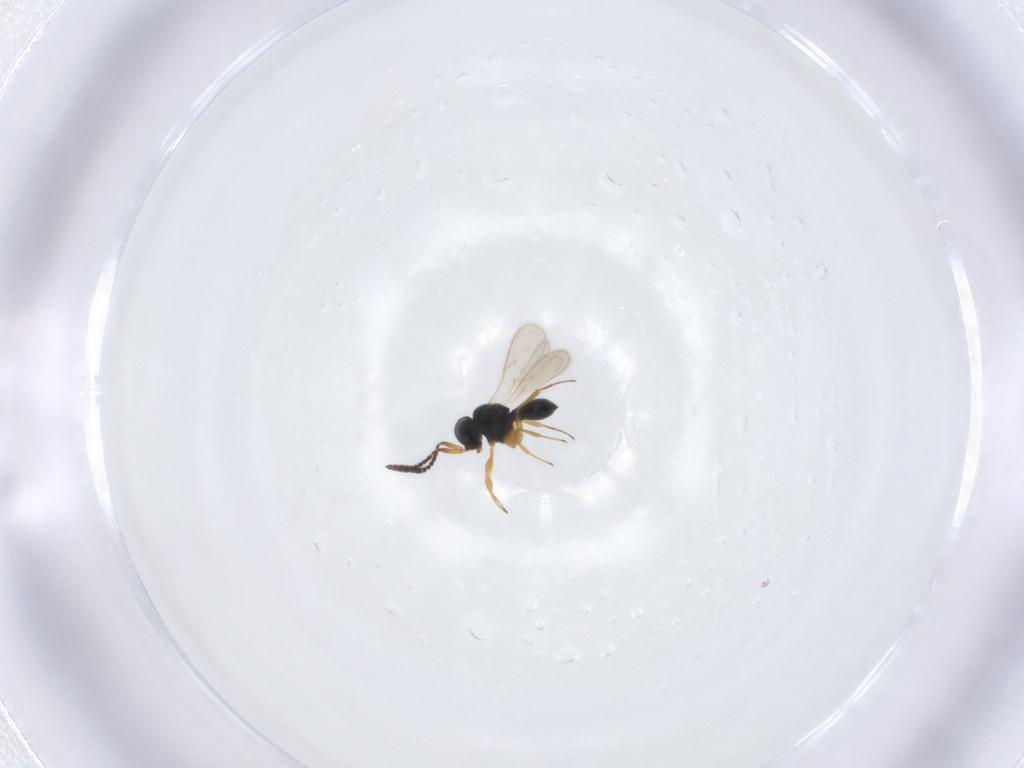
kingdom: Animalia
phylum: Arthropoda
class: Insecta
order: Hymenoptera
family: Scelionidae
